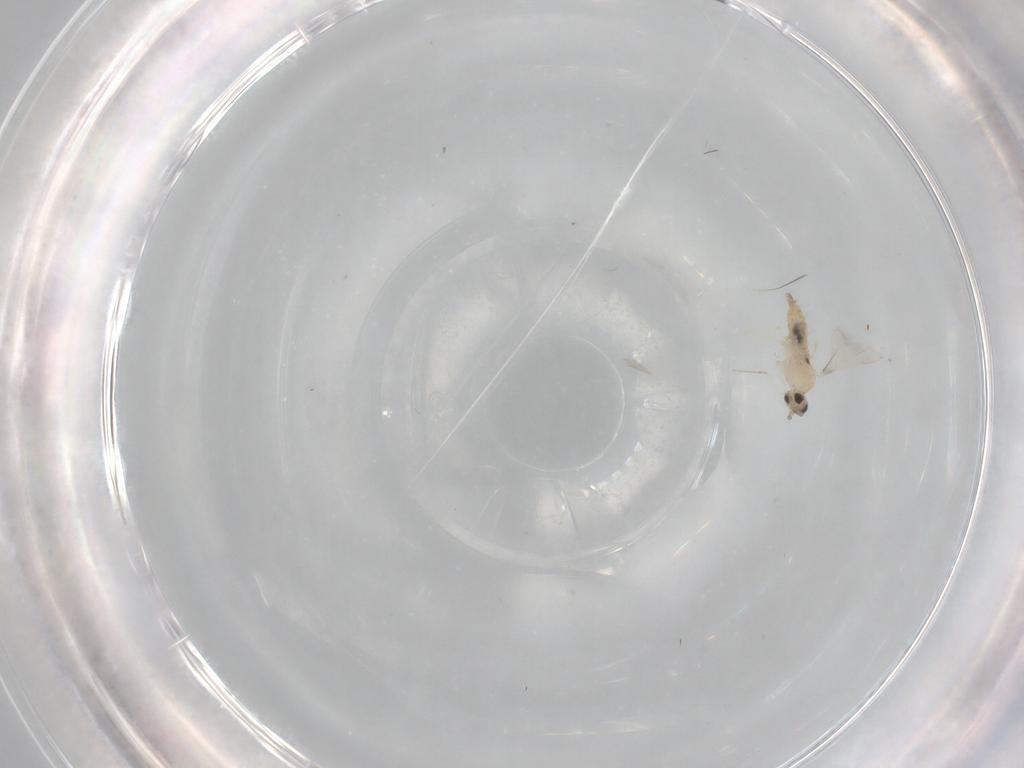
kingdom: Animalia
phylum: Arthropoda
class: Insecta
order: Diptera
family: Cecidomyiidae
